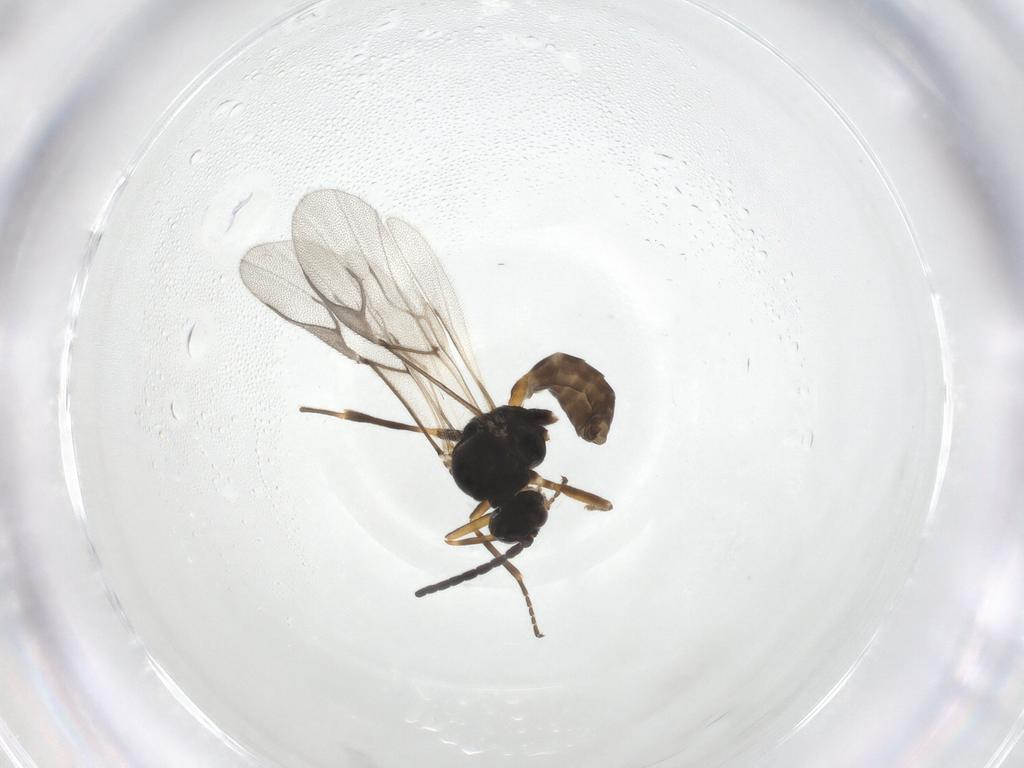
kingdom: Animalia
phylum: Arthropoda
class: Insecta
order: Hymenoptera
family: Braconidae
